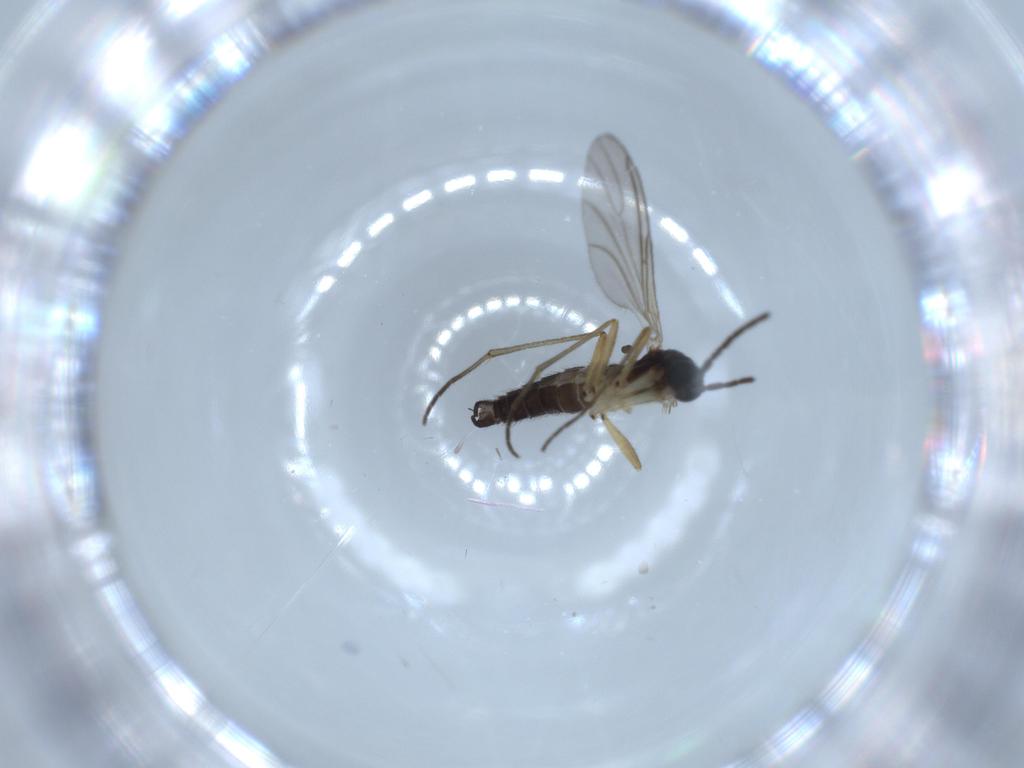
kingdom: Animalia
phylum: Arthropoda
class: Insecta
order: Diptera
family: Sciaridae
